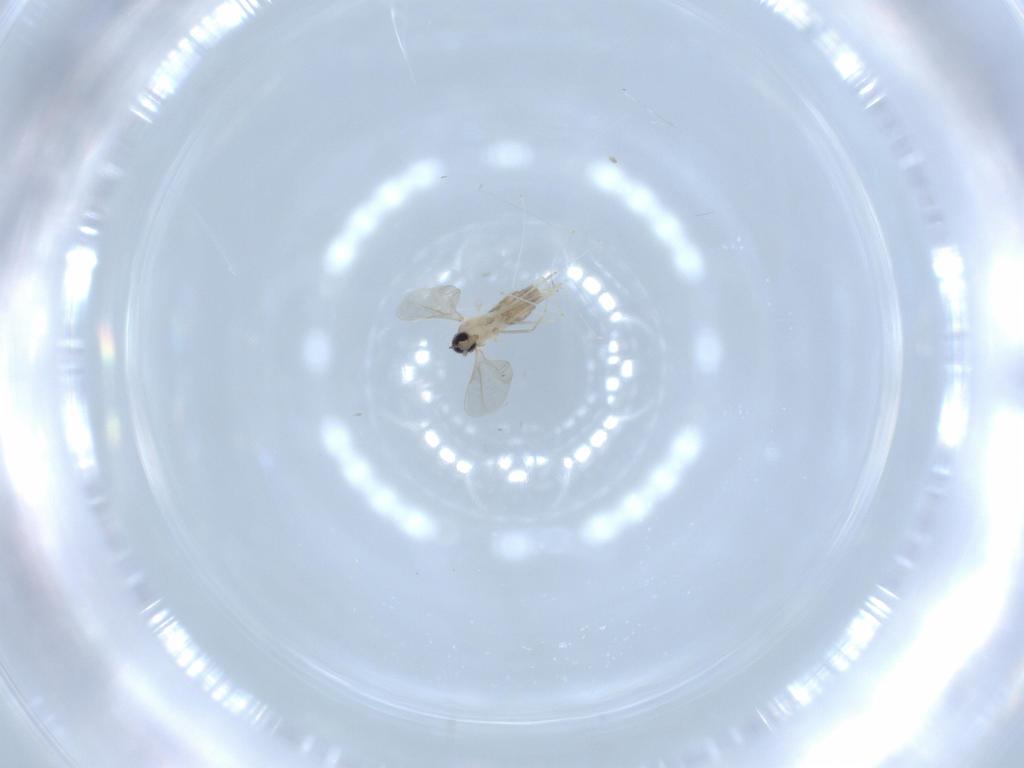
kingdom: Animalia
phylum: Arthropoda
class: Insecta
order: Diptera
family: Cecidomyiidae
